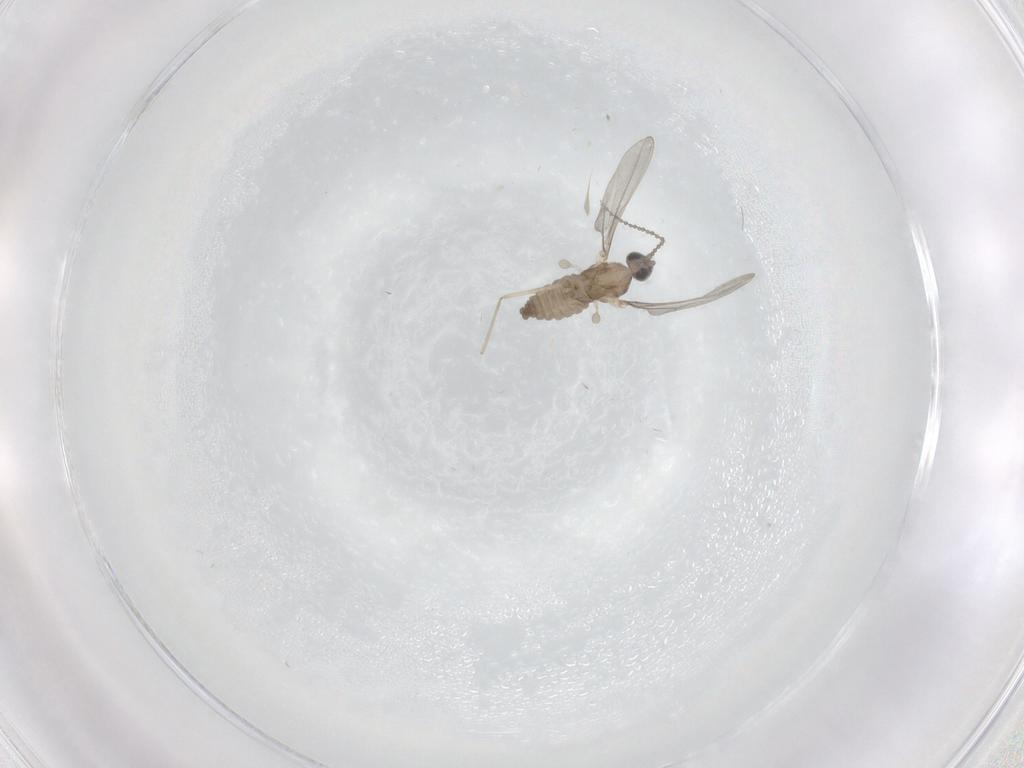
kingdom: Animalia
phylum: Arthropoda
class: Insecta
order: Diptera
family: Cecidomyiidae
